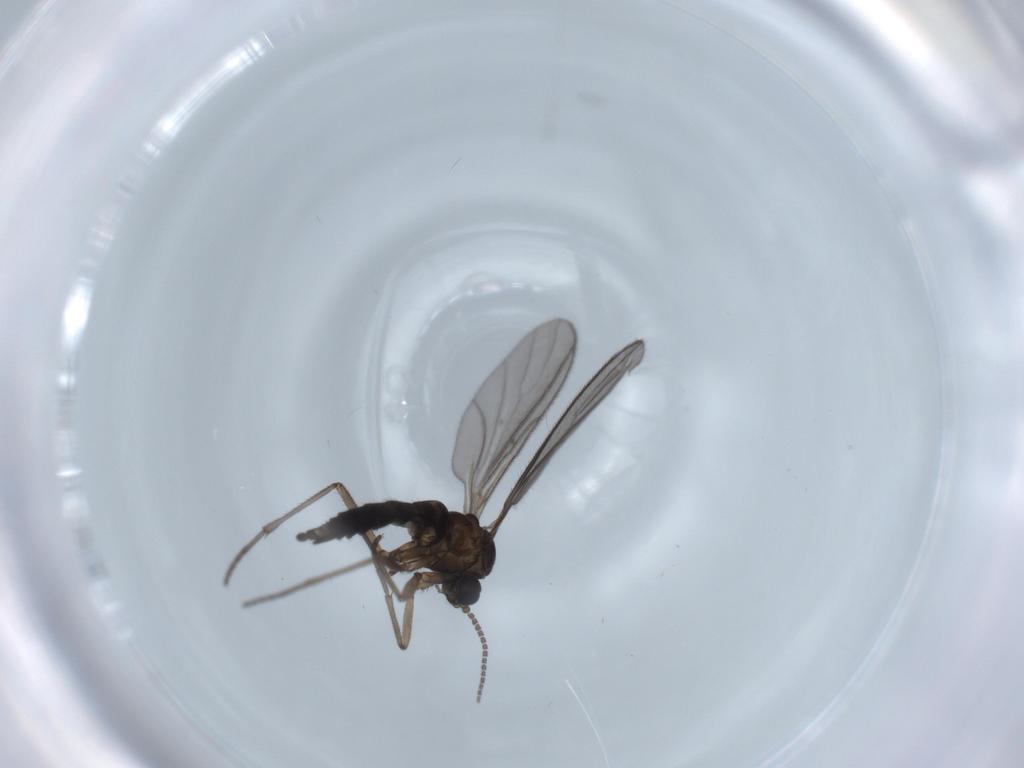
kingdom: Animalia
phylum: Arthropoda
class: Insecta
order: Diptera
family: Sciaridae
